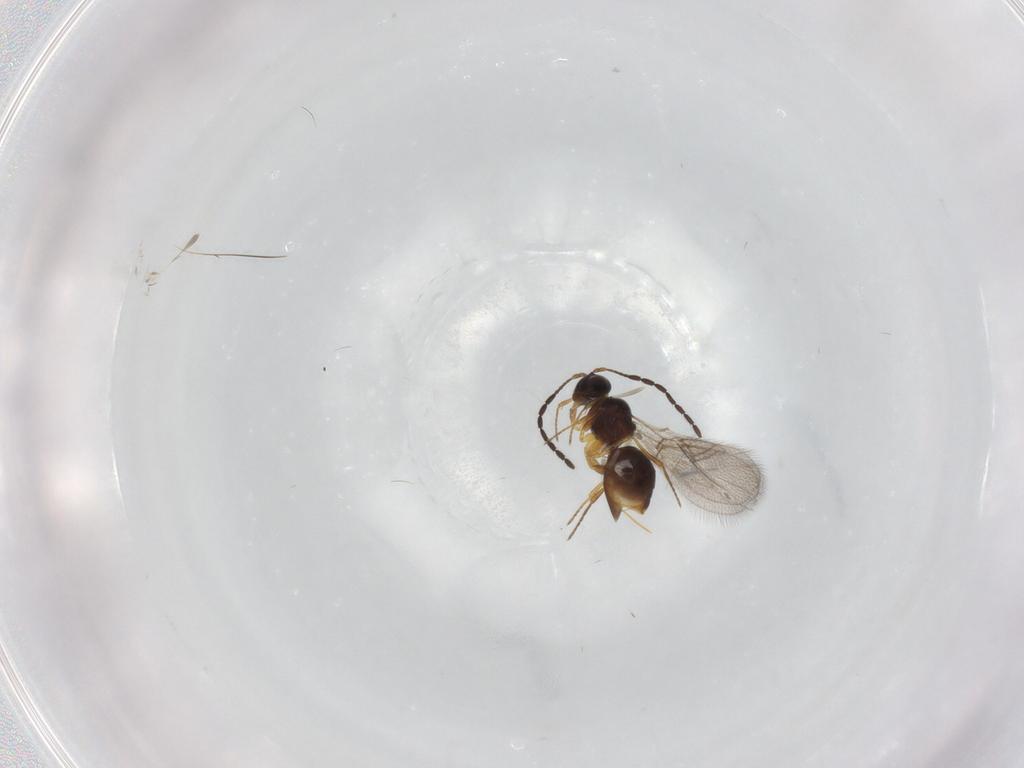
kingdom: Animalia
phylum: Arthropoda
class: Insecta
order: Hymenoptera
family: Figitidae
